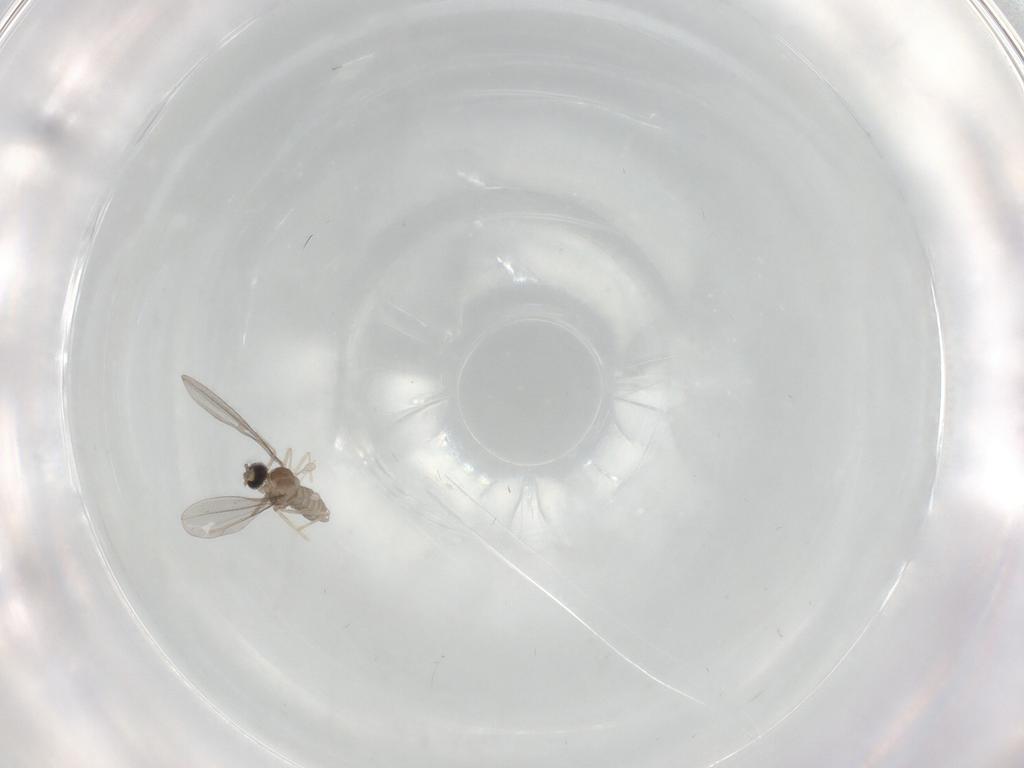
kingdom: Animalia
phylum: Arthropoda
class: Insecta
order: Diptera
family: Cecidomyiidae
